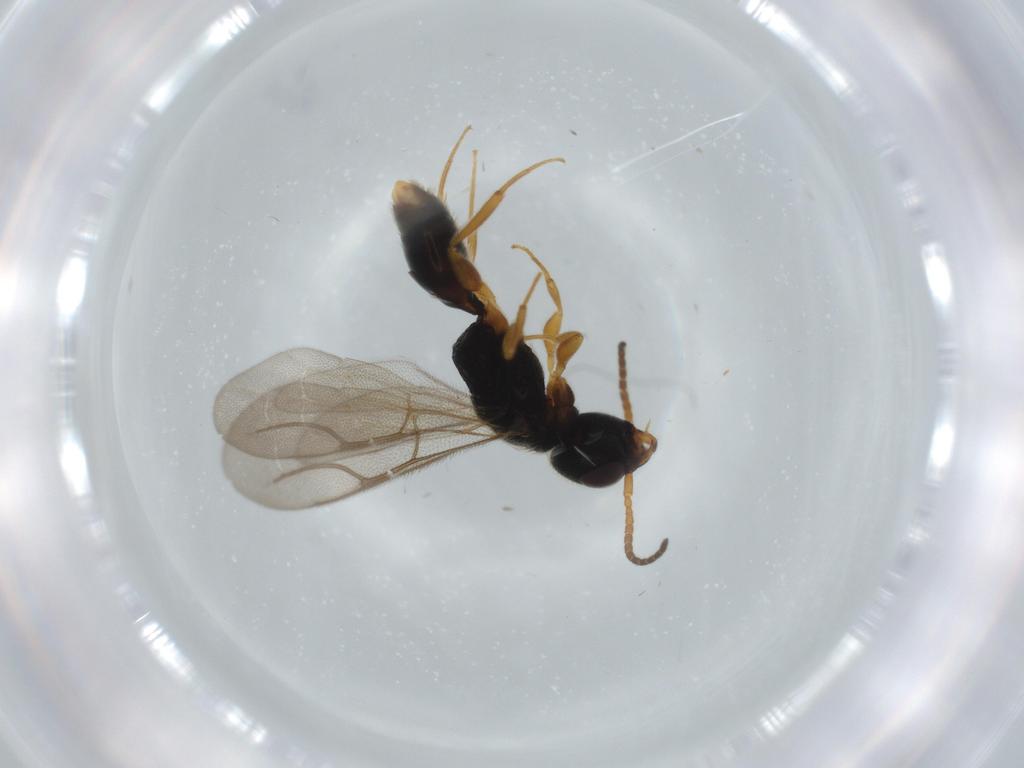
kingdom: Animalia
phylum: Arthropoda
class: Insecta
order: Hymenoptera
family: Bethylidae
